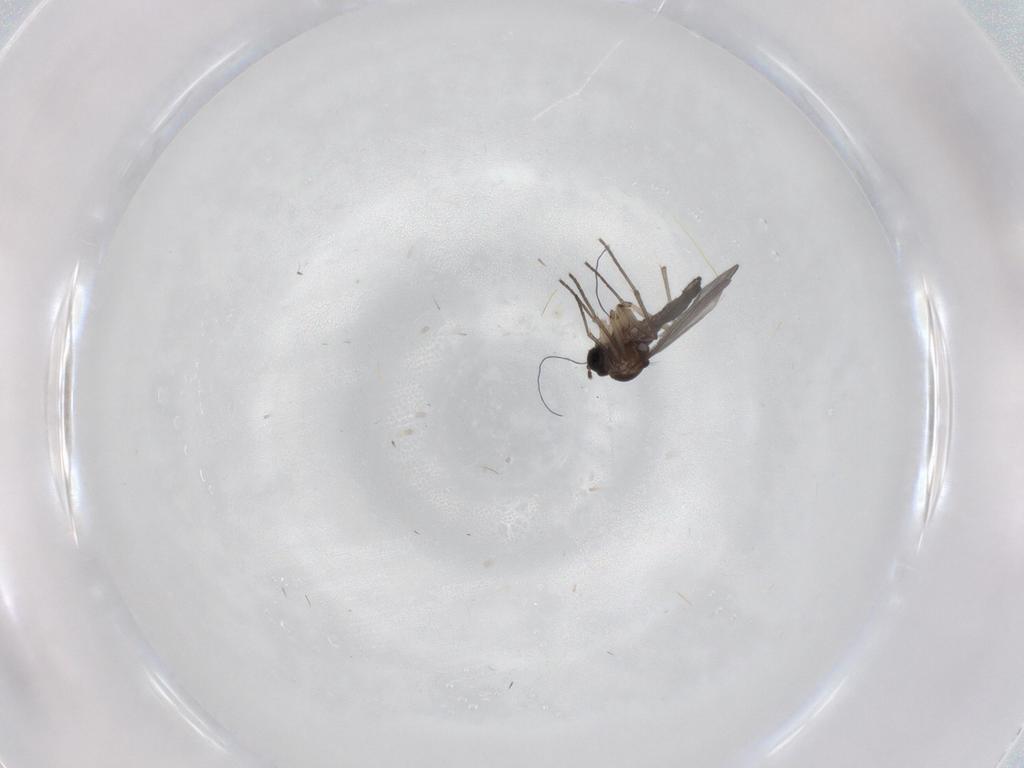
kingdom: Animalia
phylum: Arthropoda
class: Insecta
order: Diptera
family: Sciaridae
